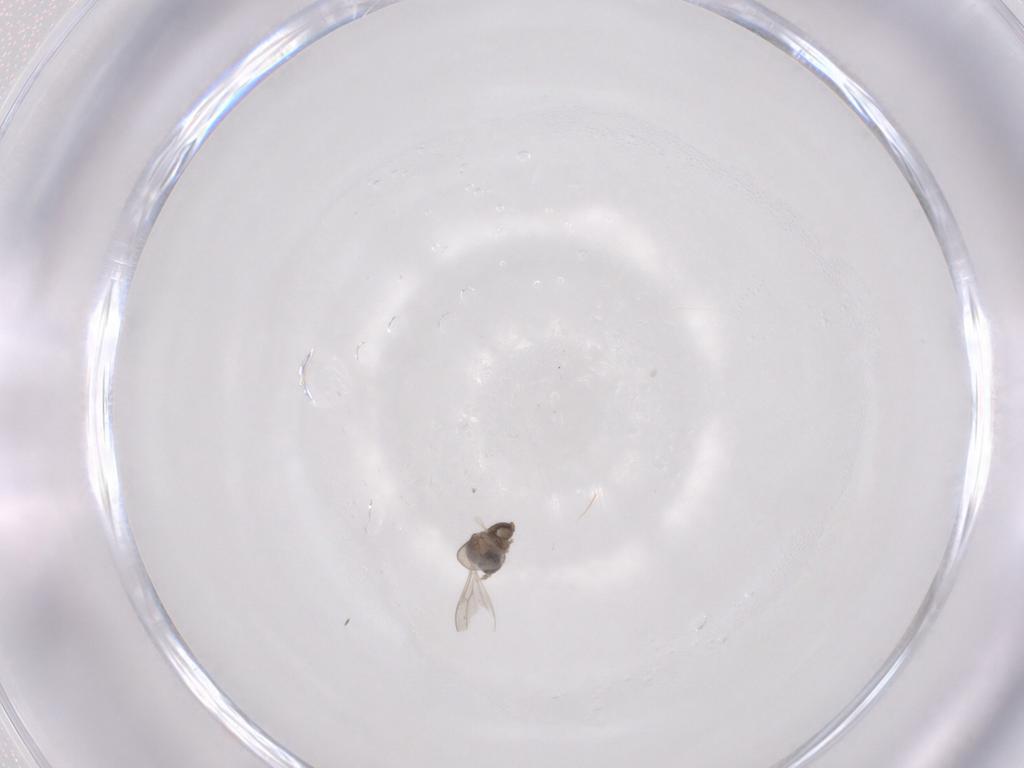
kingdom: Animalia
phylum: Arthropoda
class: Insecta
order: Diptera
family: Cecidomyiidae
